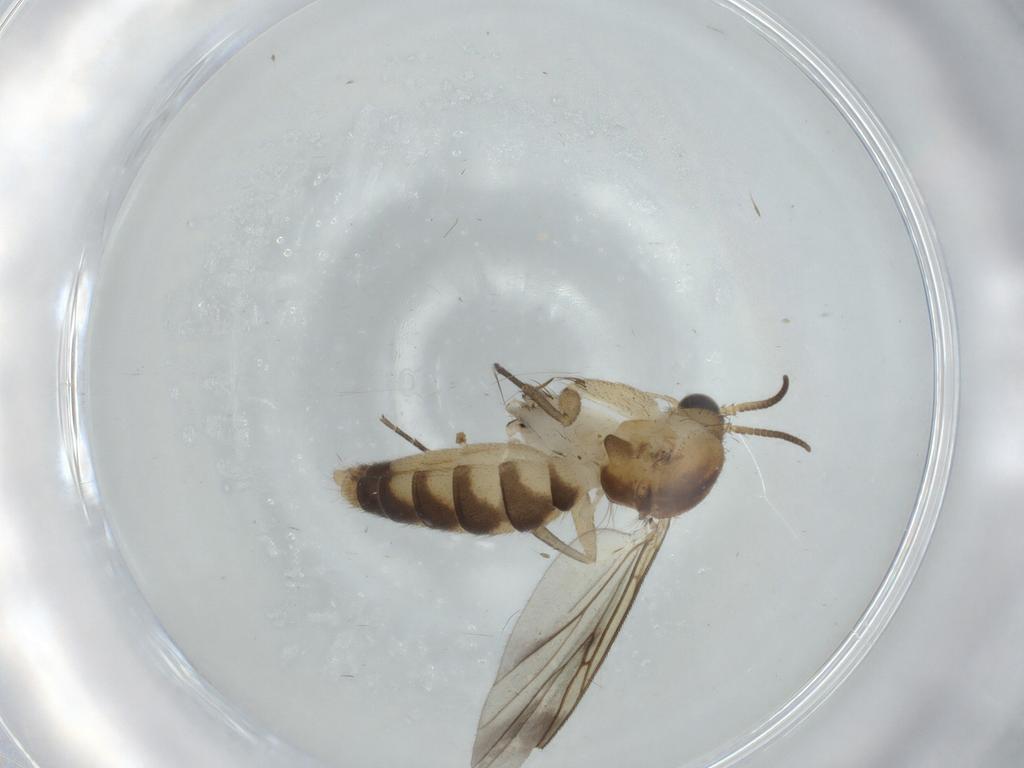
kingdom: Animalia
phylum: Arthropoda
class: Insecta
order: Diptera
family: Mycetophilidae
